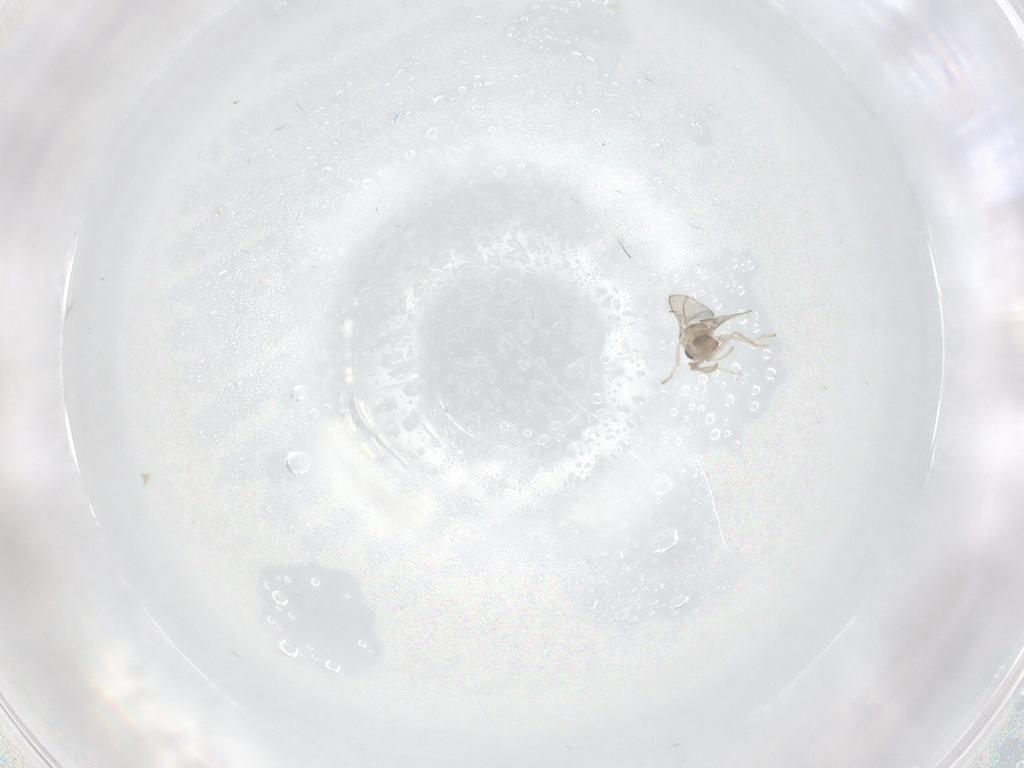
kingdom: Animalia
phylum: Arthropoda
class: Insecta
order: Diptera
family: Cecidomyiidae
